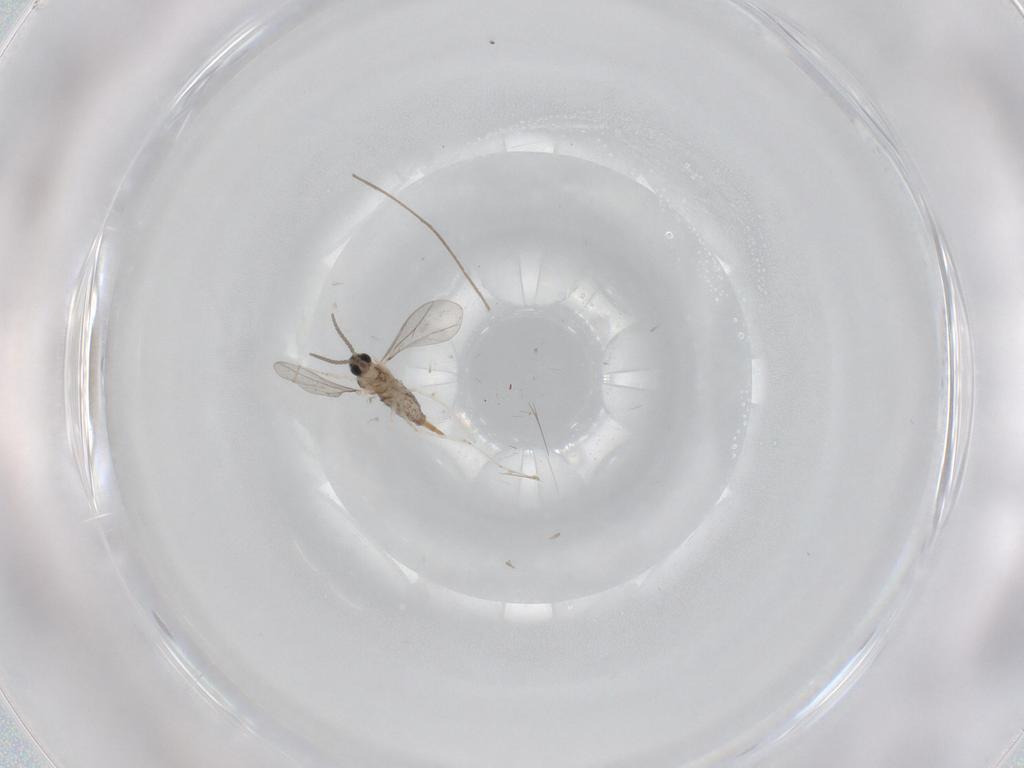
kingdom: Animalia
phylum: Arthropoda
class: Insecta
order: Diptera
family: Cecidomyiidae
